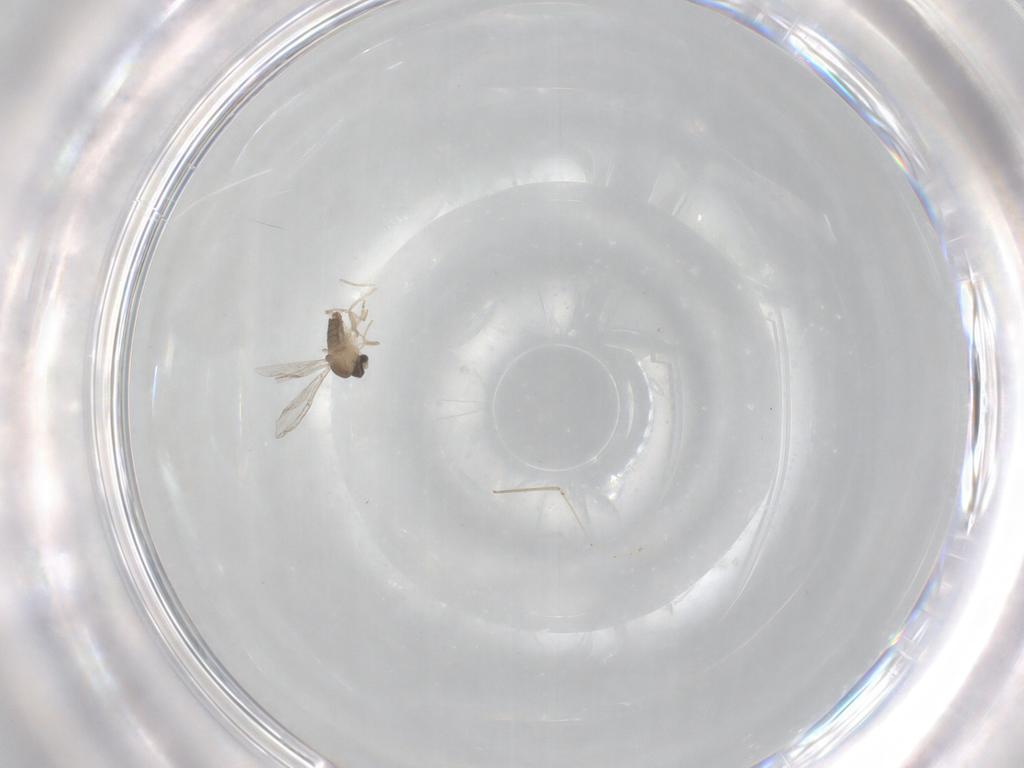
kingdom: Animalia
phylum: Arthropoda
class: Insecta
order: Diptera
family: Cecidomyiidae
